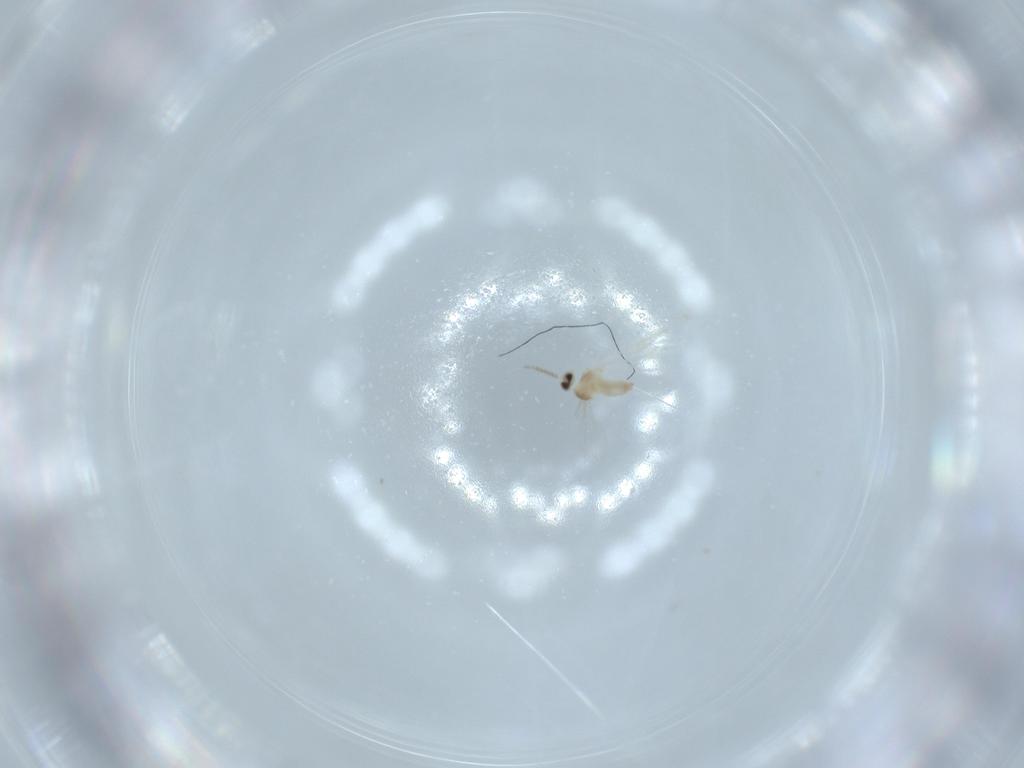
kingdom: Animalia
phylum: Arthropoda
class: Insecta
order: Diptera
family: Cecidomyiidae
